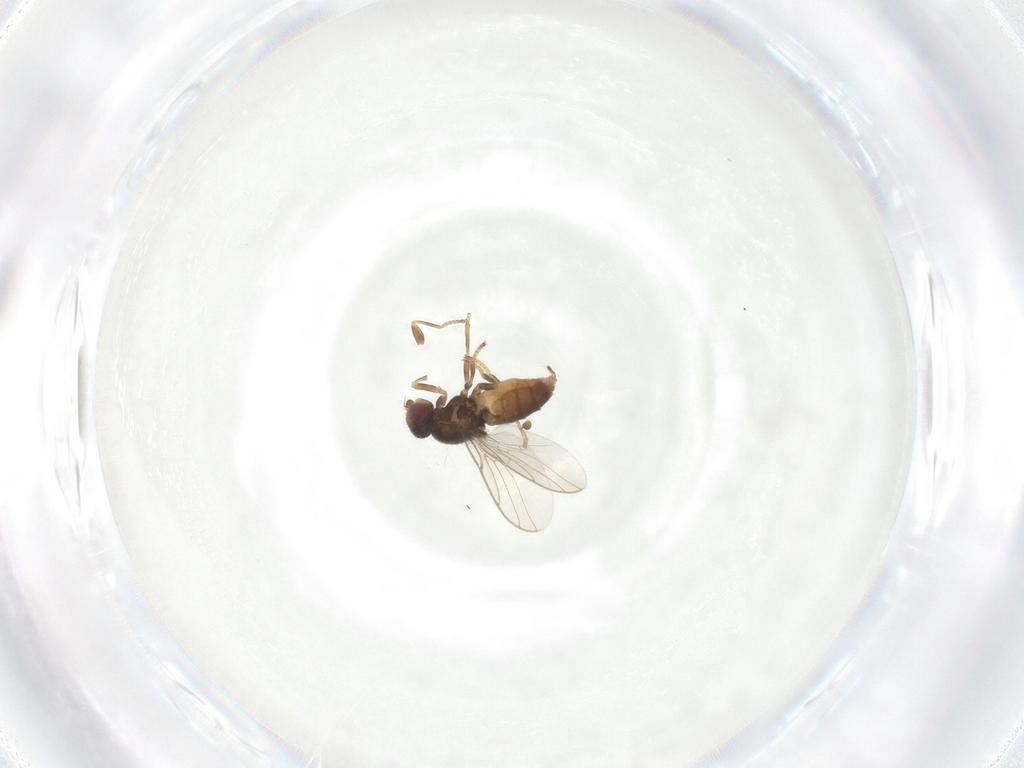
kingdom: Animalia
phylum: Arthropoda
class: Insecta
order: Diptera
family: Chloropidae
